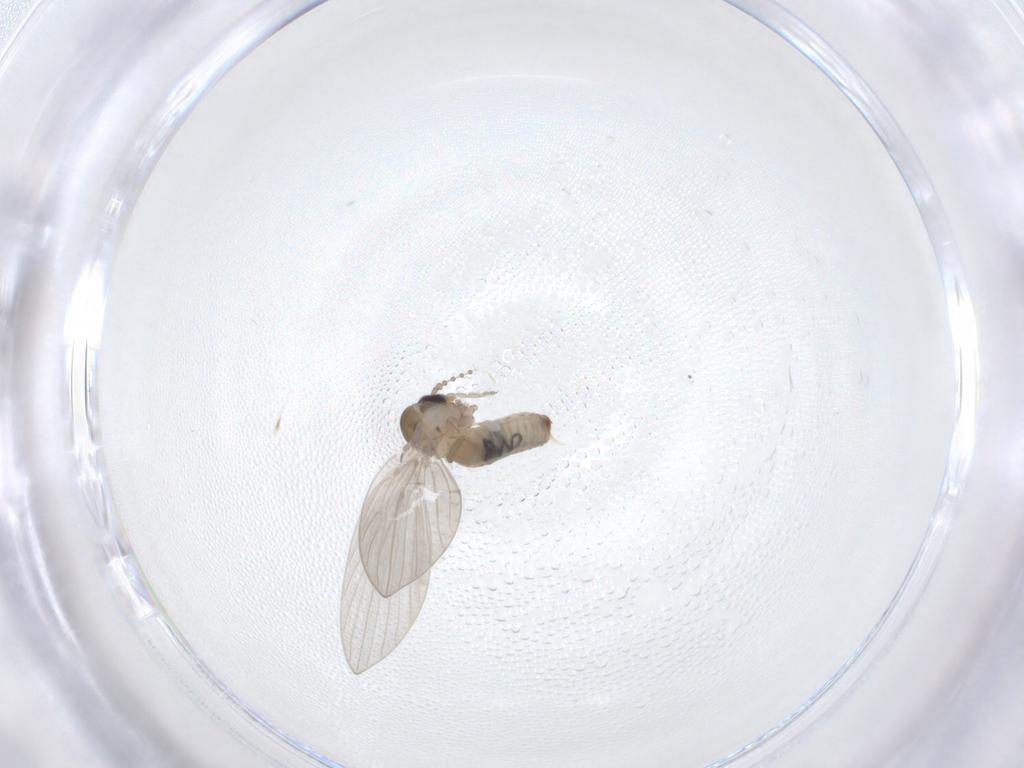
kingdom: Animalia
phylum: Arthropoda
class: Insecta
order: Diptera
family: Psychodidae
